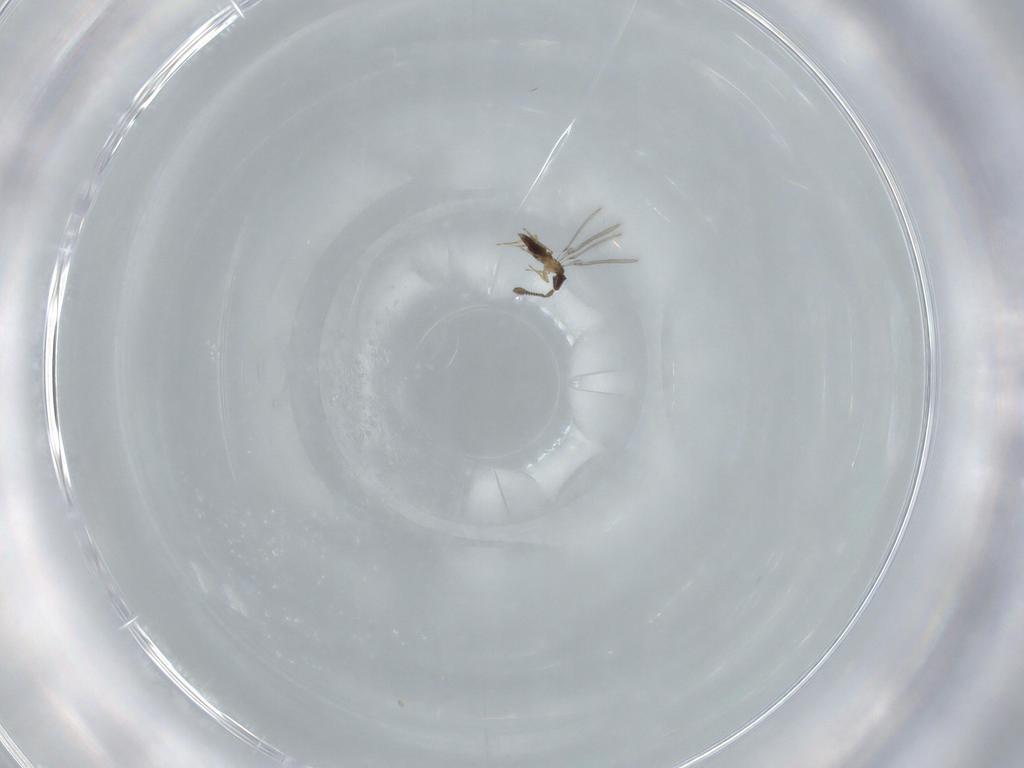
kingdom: Animalia
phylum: Arthropoda
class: Insecta
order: Hymenoptera
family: Mymaridae
